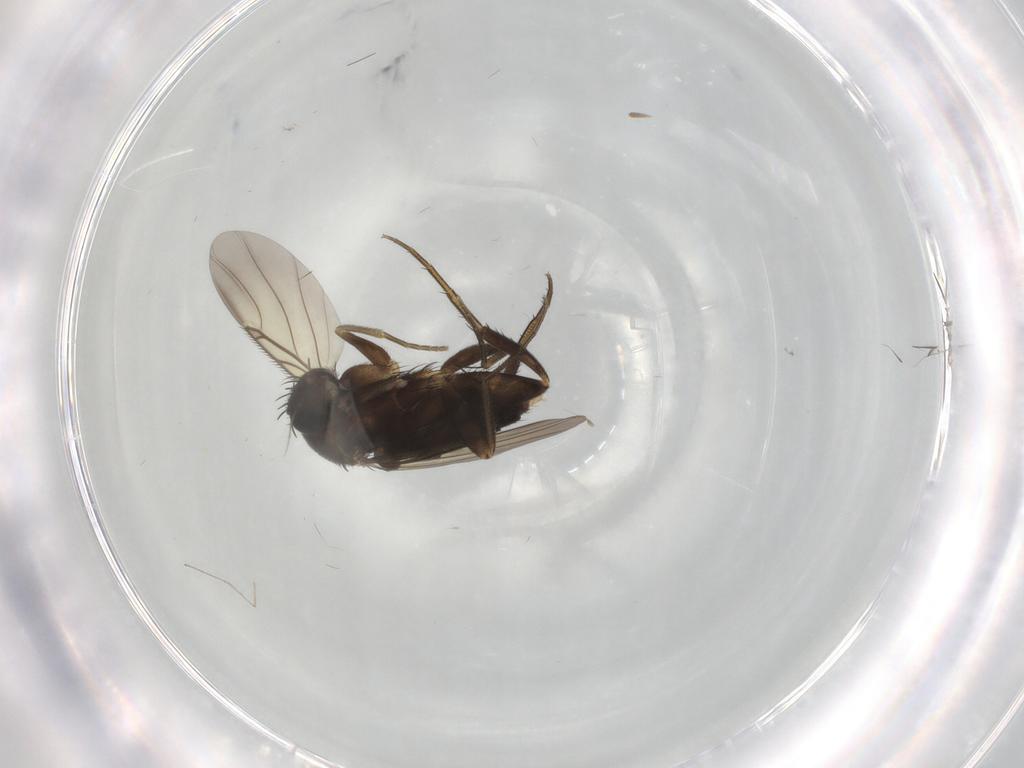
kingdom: Animalia
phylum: Arthropoda
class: Insecta
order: Diptera
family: Phoridae
